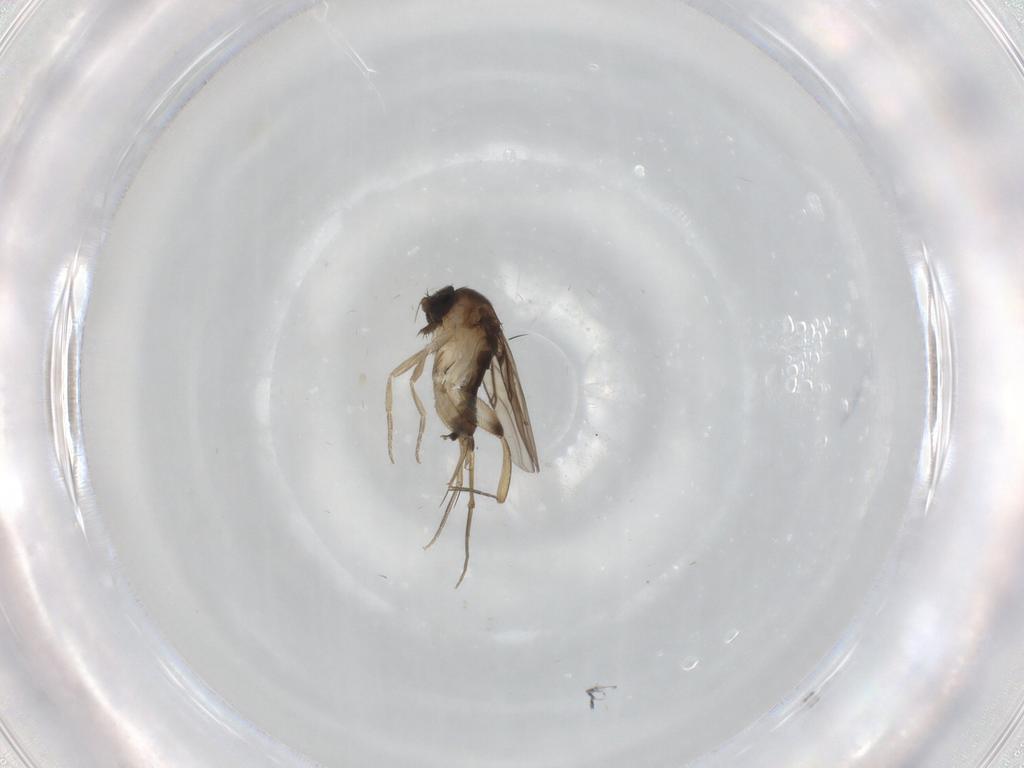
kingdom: Animalia
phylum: Arthropoda
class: Insecta
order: Diptera
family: Phoridae
